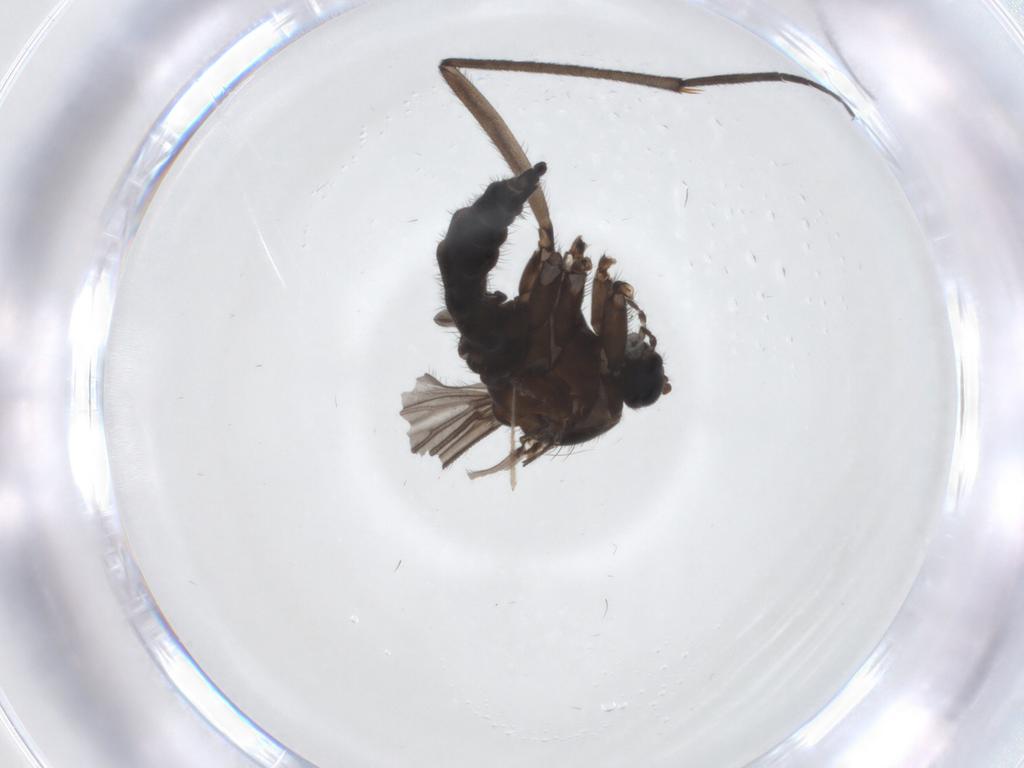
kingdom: Animalia
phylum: Arthropoda
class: Insecta
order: Diptera
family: Sciaridae
